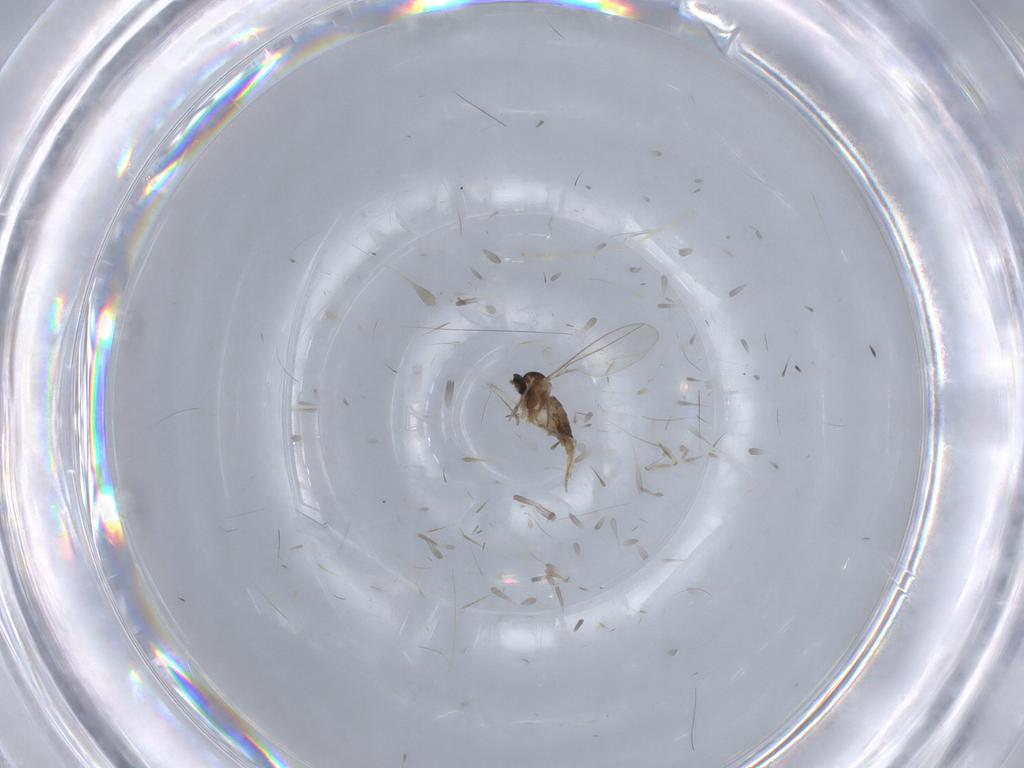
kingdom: Animalia
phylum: Arthropoda
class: Insecta
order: Diptera
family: Chironomidae
